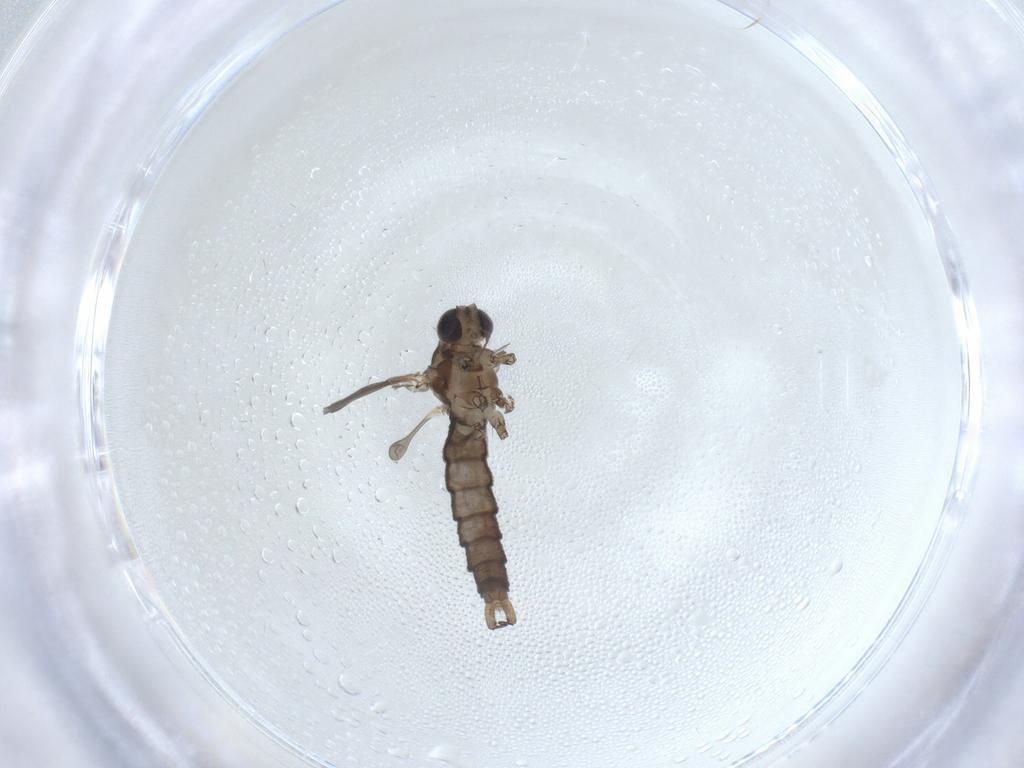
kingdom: Animalia
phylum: Arthropoda
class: Insecta
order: Diptera
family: Limoniidae
